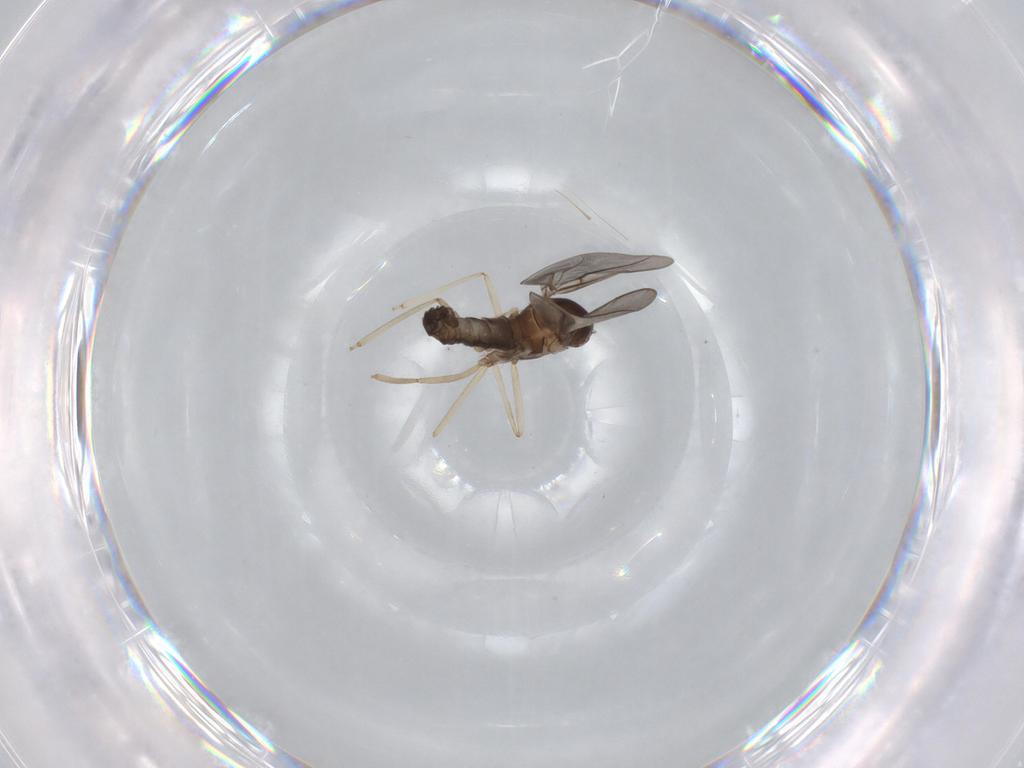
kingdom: Animalia
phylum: Arthropoda
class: Insecta
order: Diptera
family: Cecidomyiidae
